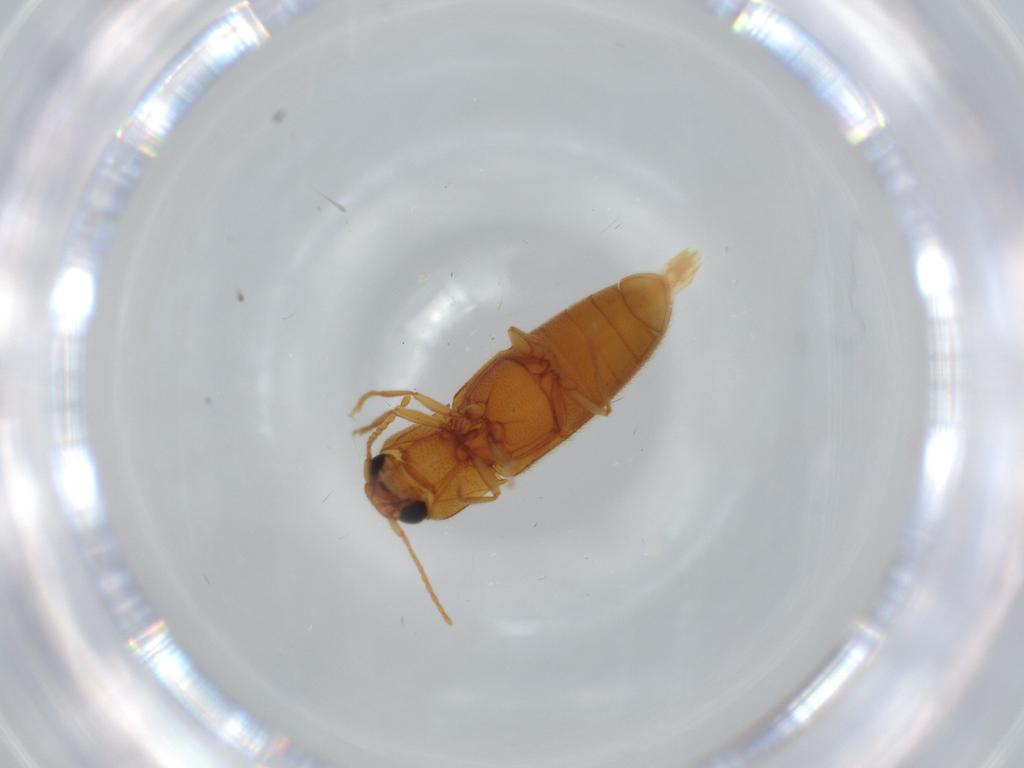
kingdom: Animalia
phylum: Arthropoda
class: Insecta
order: Coleoptera
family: Elateridae
